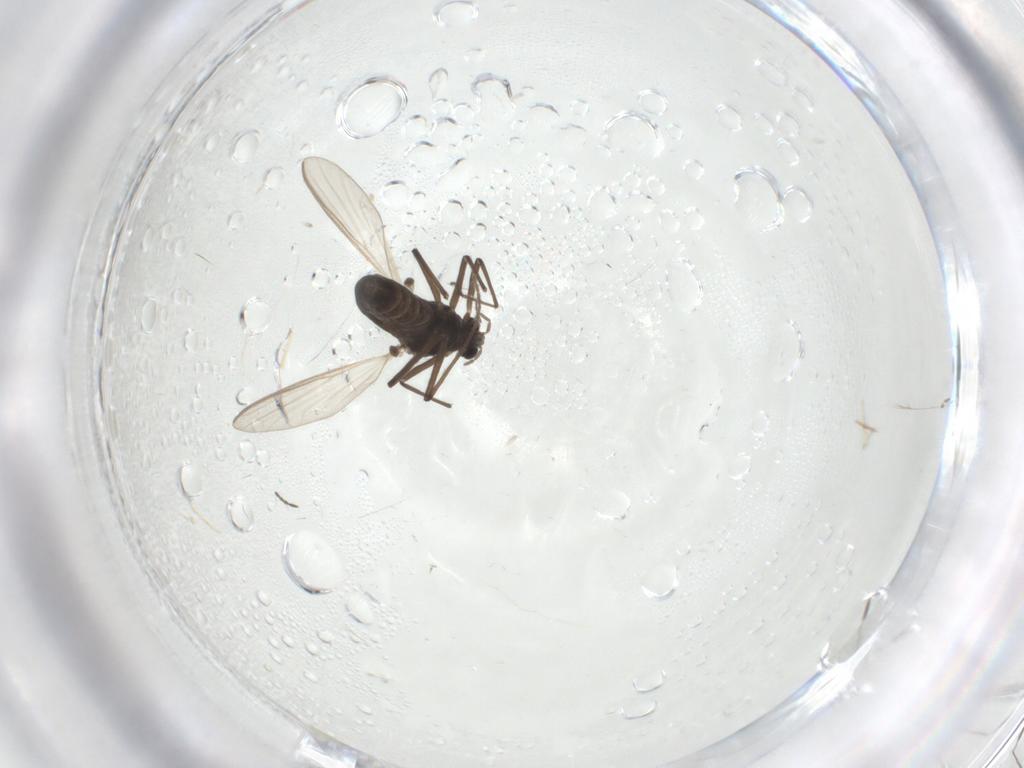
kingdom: Animalia
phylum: Arthropoda
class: Insecta
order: Diptera
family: Chironomidae
